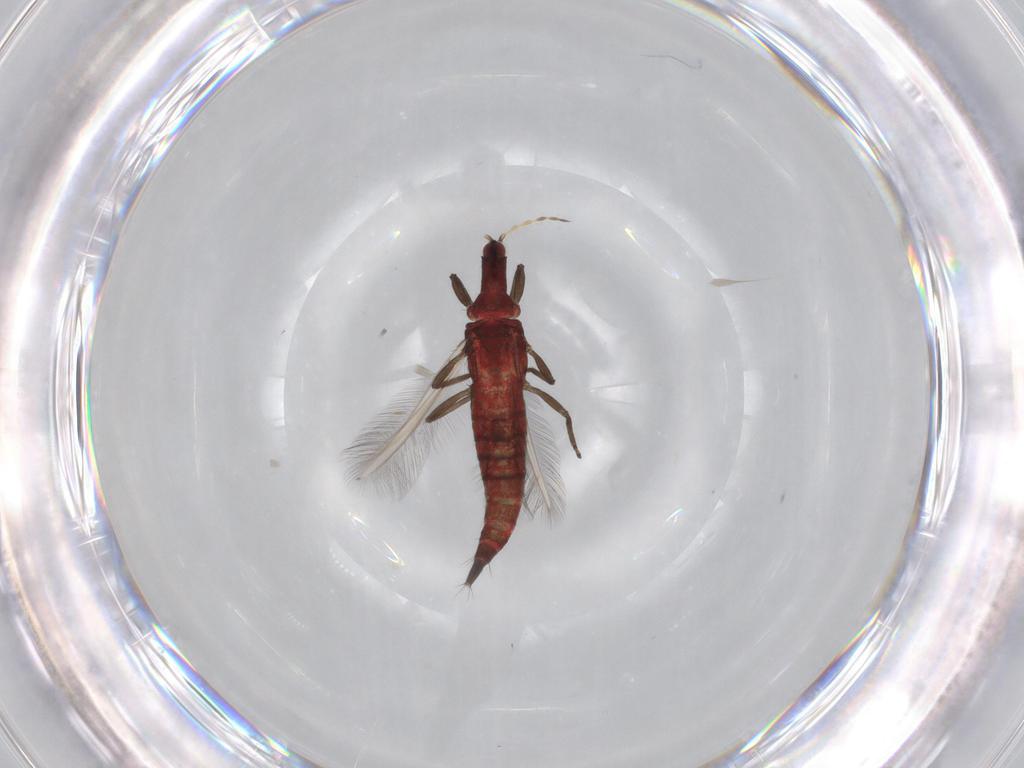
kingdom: Animalia
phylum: Arthropoda
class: Insecta
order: Thysanoptera
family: Phlaeothripidae
